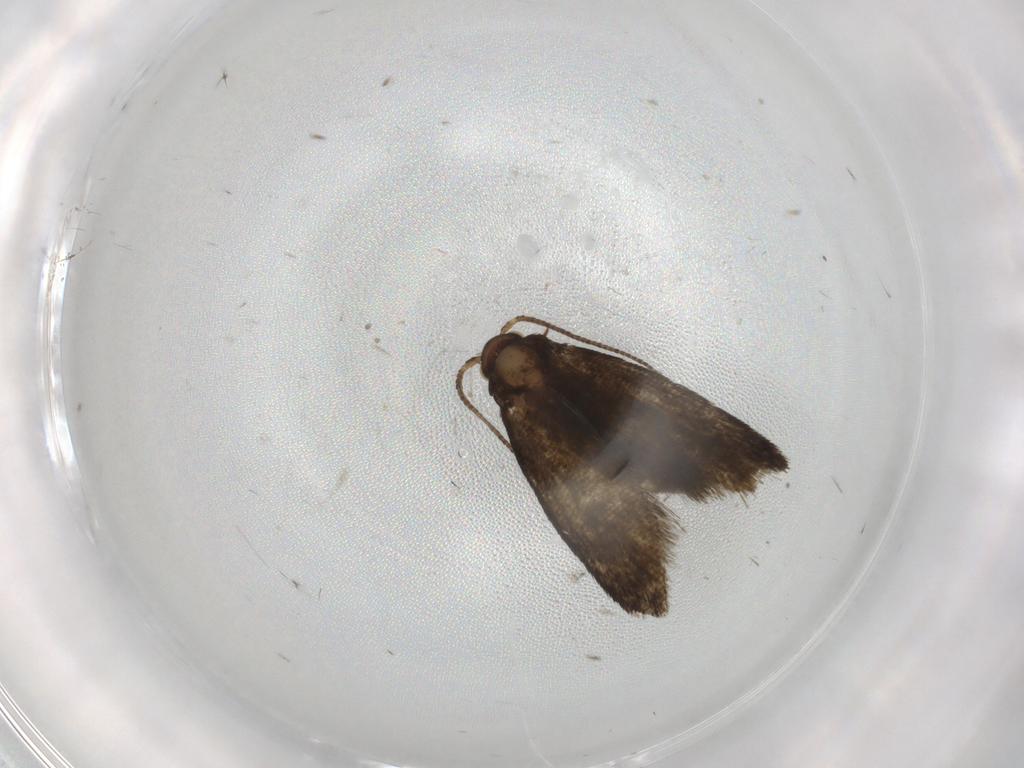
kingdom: Animalia
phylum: Arthropoda
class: Insecta
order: Lepidoptera
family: Tineidae
